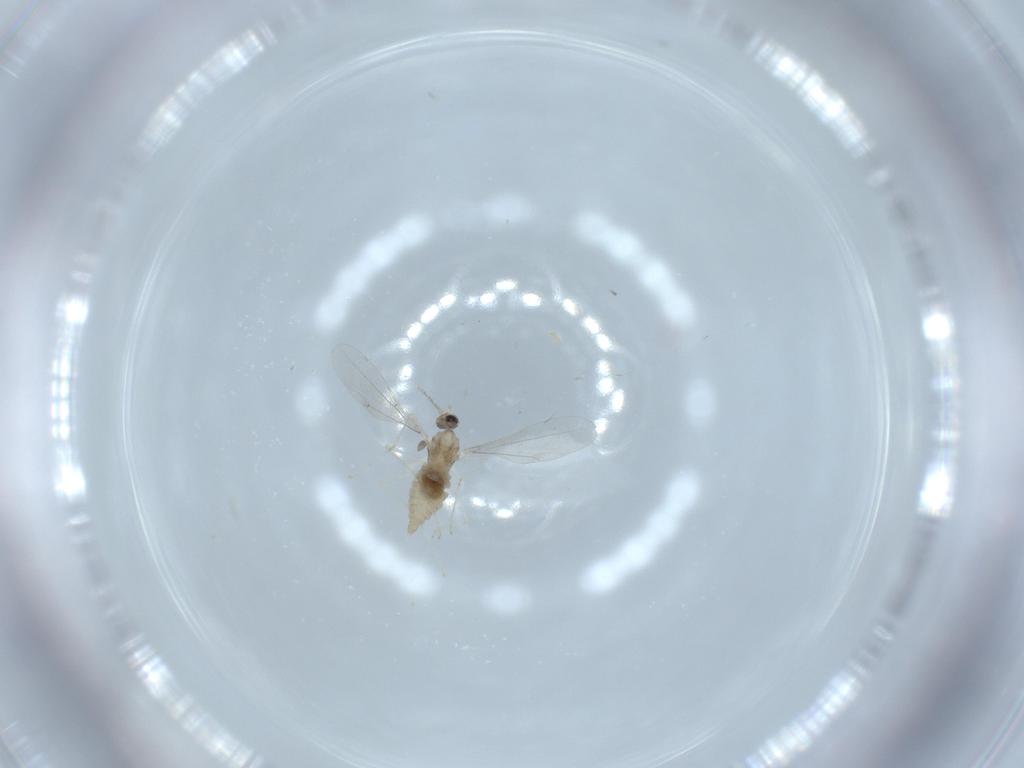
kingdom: Animalia
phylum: Arthropoda
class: Insecta
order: Diptera
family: Cecidomyiidae
